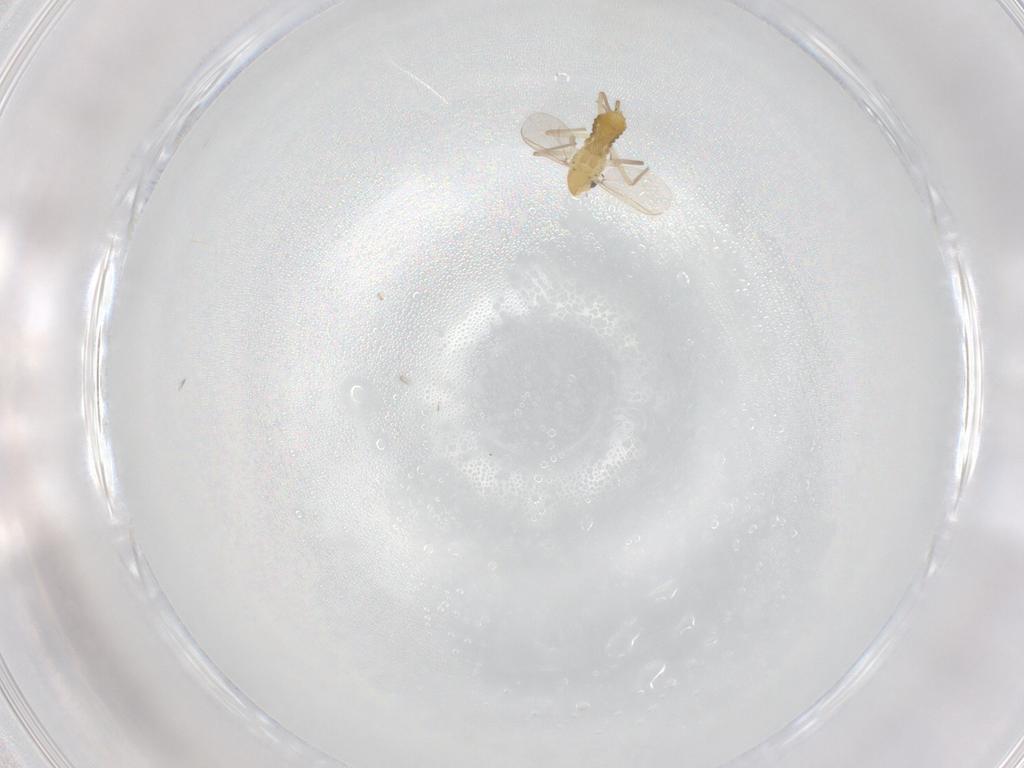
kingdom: Animalia
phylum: Arthropoda
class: Insecta
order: Diptera
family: Chironomidae
